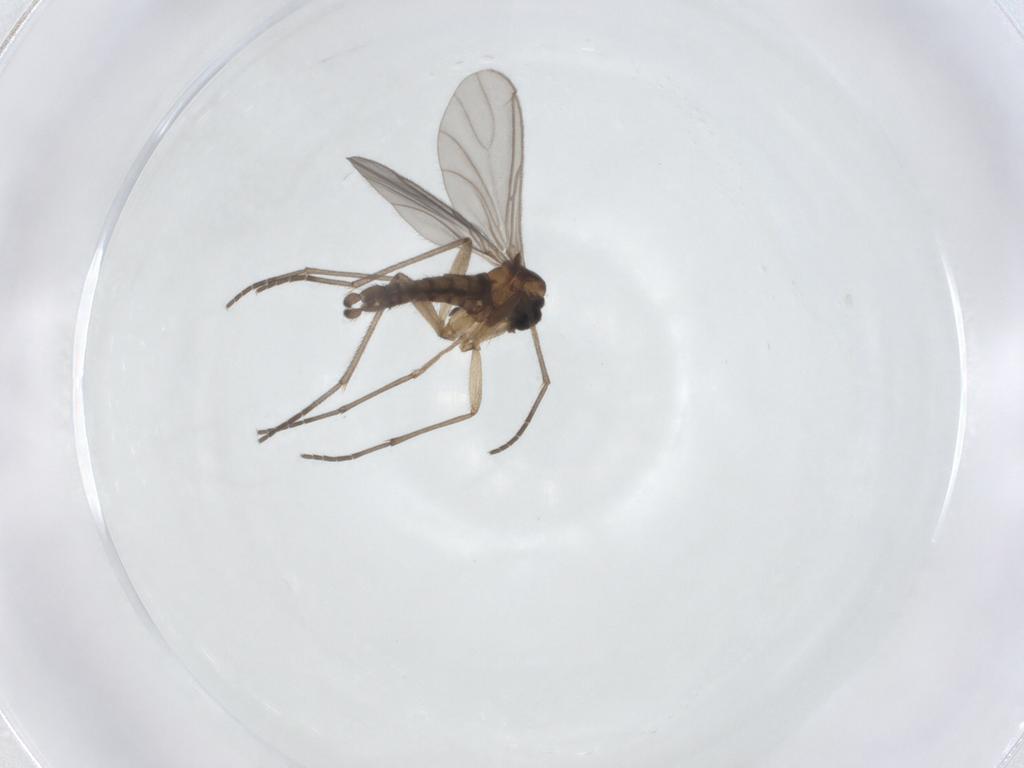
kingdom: Animalia
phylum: Arthropoda
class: Insecta
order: Diptera
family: Sciaridae
